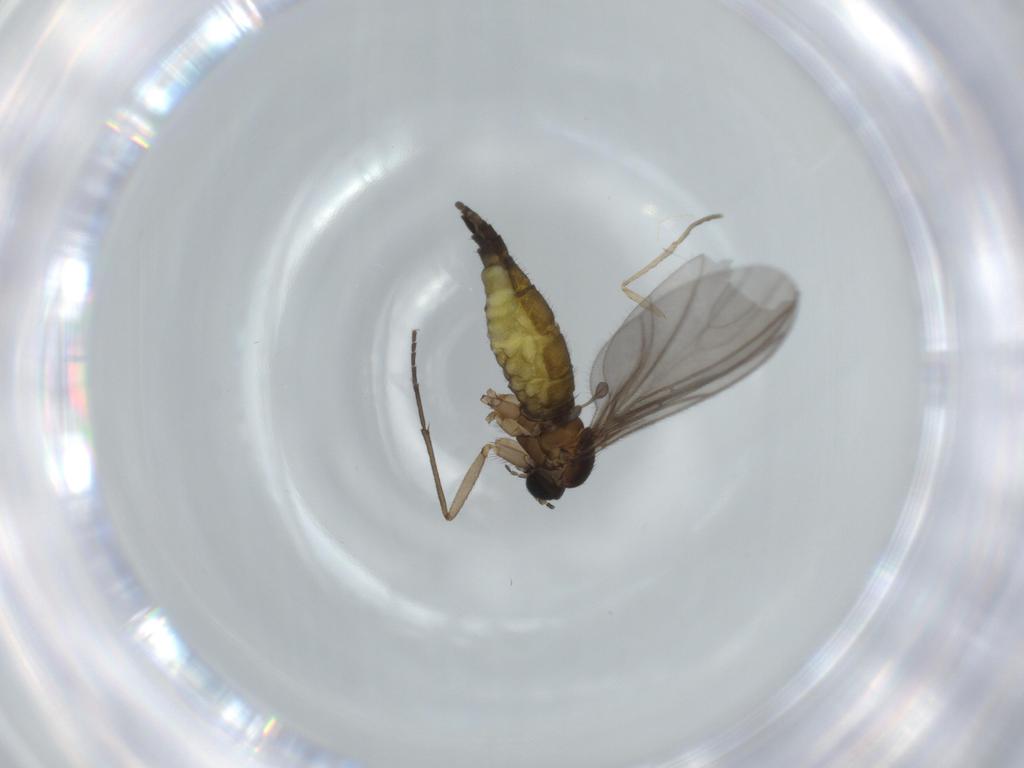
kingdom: Animalia
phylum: Arthropoda
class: Insecta
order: Diptera
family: Sciaridae
